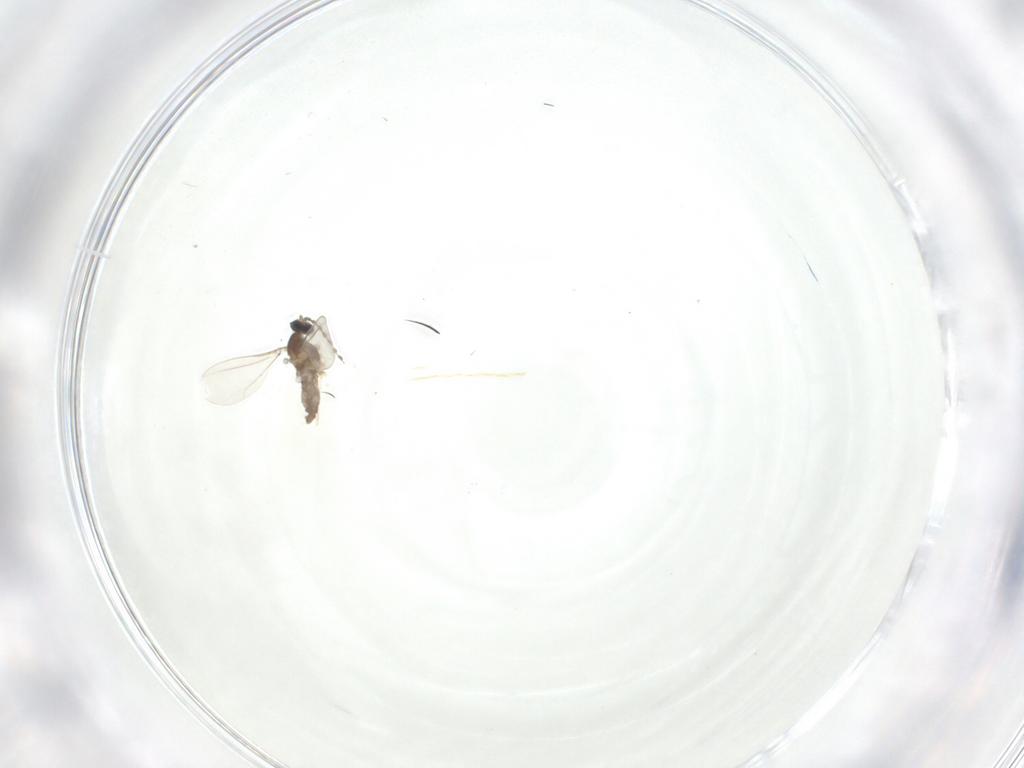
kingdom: Animalia
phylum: Arthropoda
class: Insecta
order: Diptera
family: Cecidomyiidae
